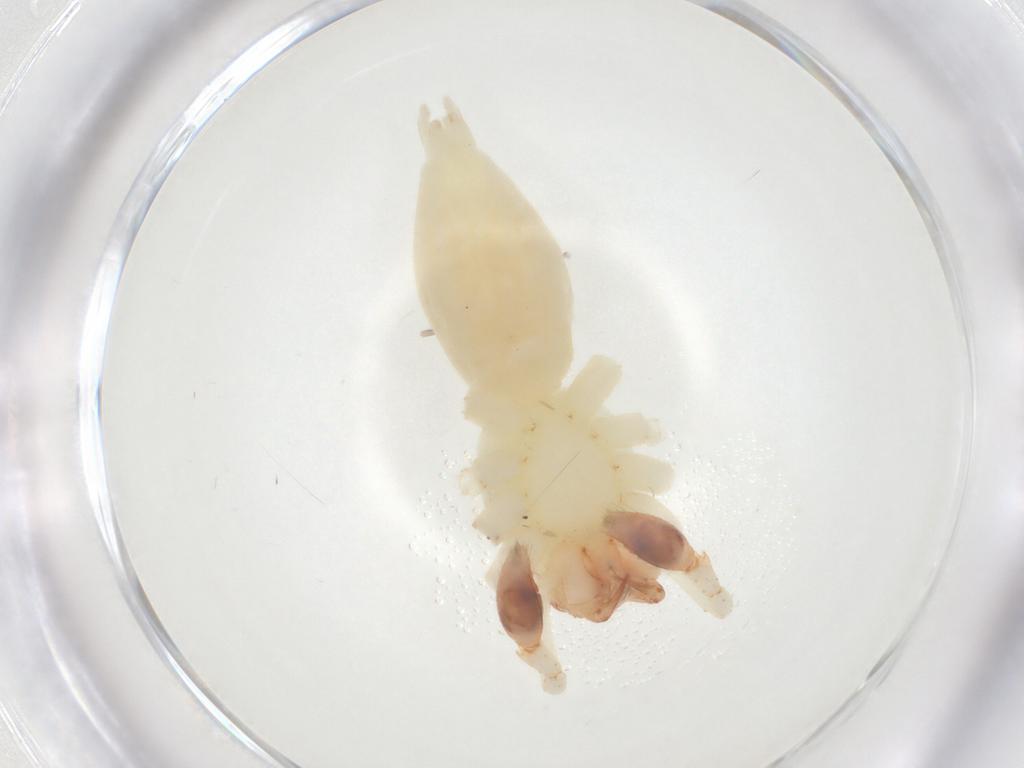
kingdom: Animalia
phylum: Arthropoda
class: Arachnida
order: Araneae
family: Anyphaenidae
